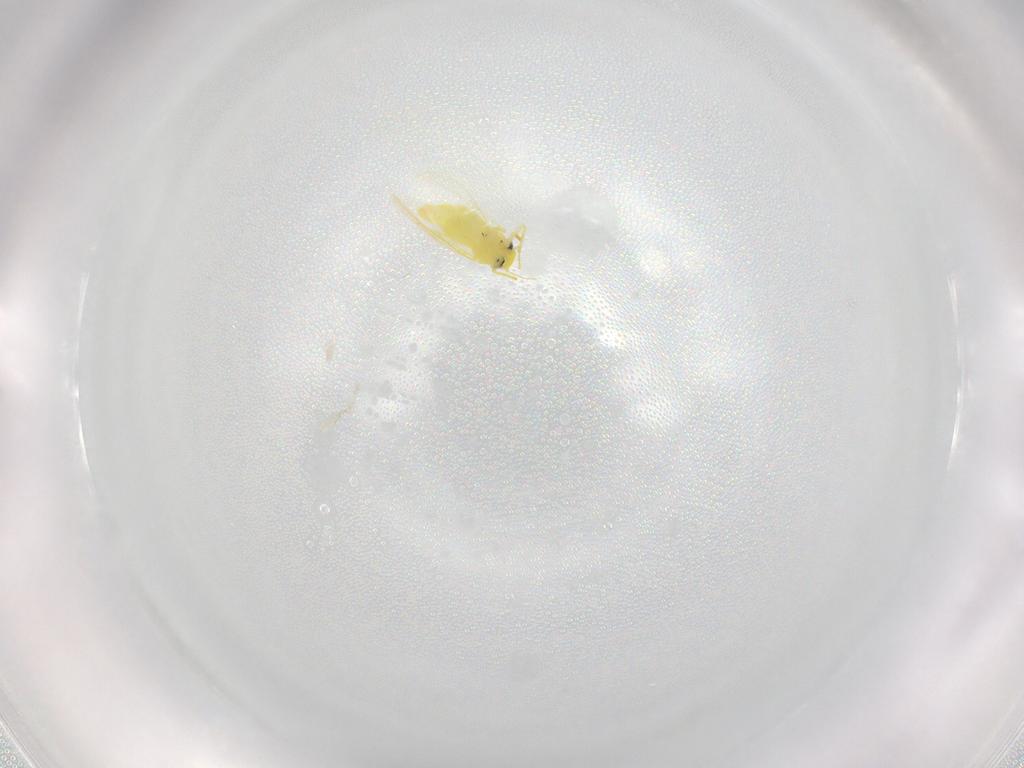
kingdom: Animalia
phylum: Arthropoda
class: Insecta
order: Hemiptera
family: Aleyrodidae
